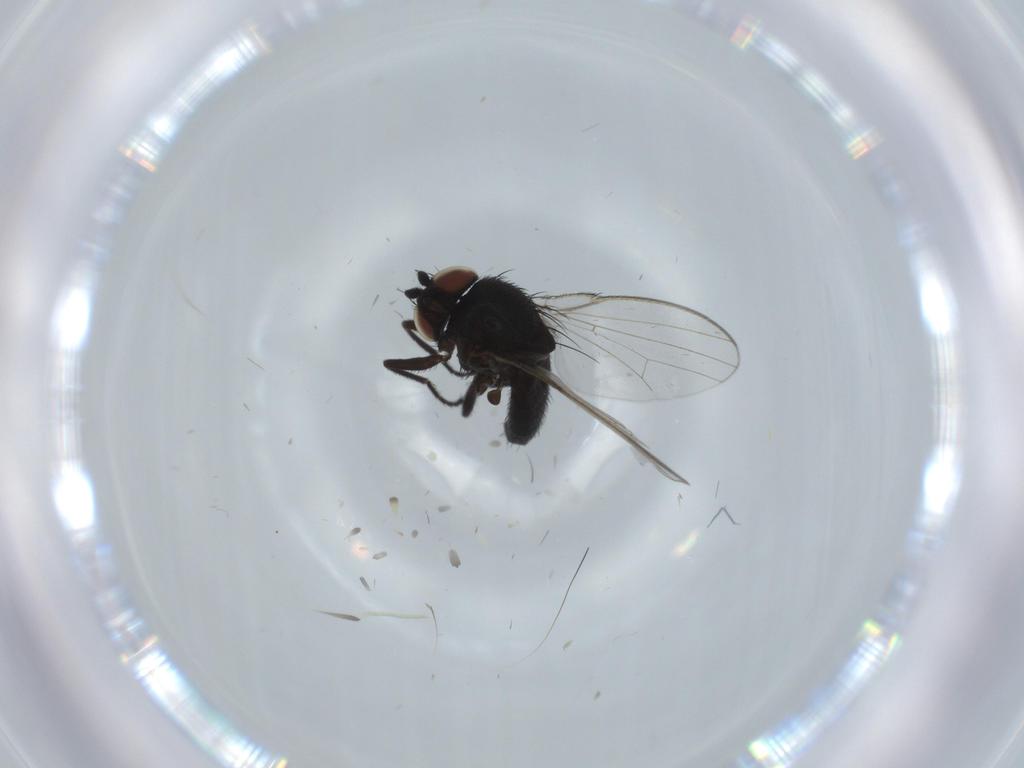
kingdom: Animalia
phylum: Arthropoda
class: Insecta
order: Diptera
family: Milichiidae
